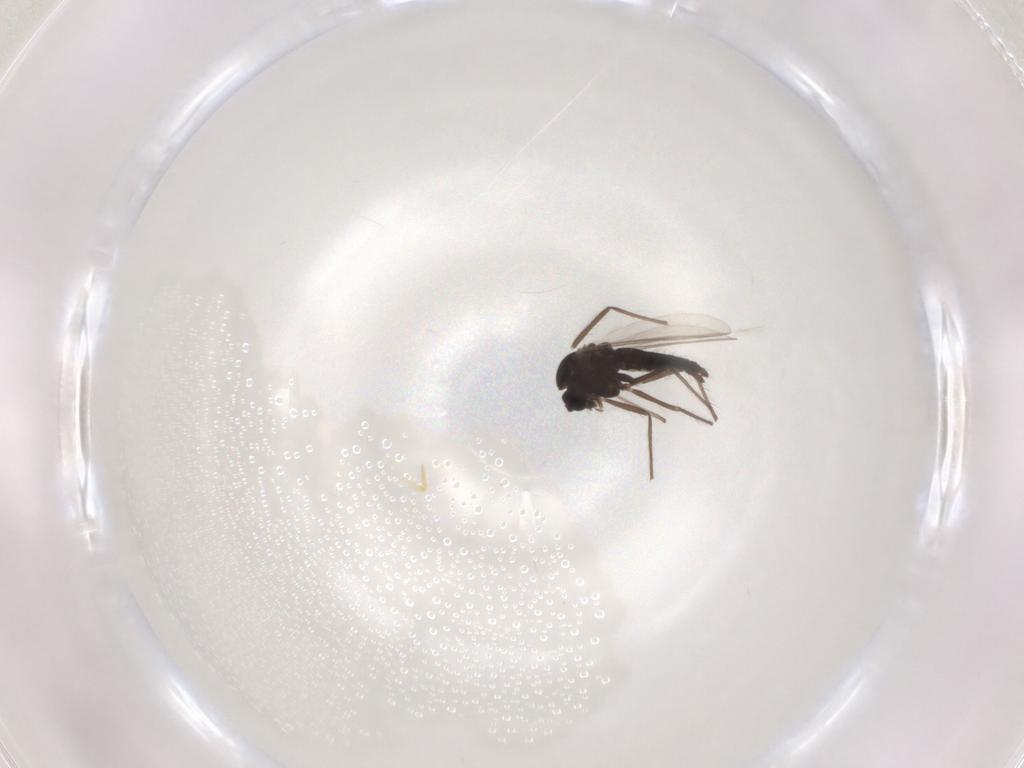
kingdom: Animalia
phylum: Arthropoda
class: Insecta
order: Diptera
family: Chironomidae
